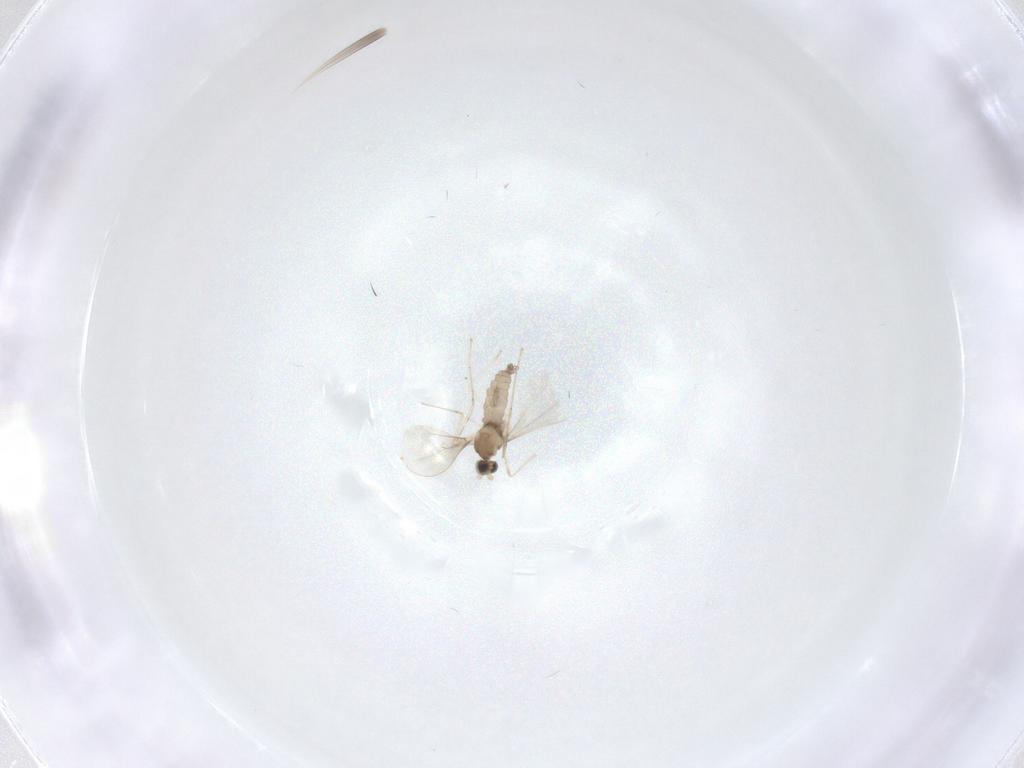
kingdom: Animalia
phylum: Arthropoda
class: Insecta
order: Diptera
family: Cecidomyiidae
